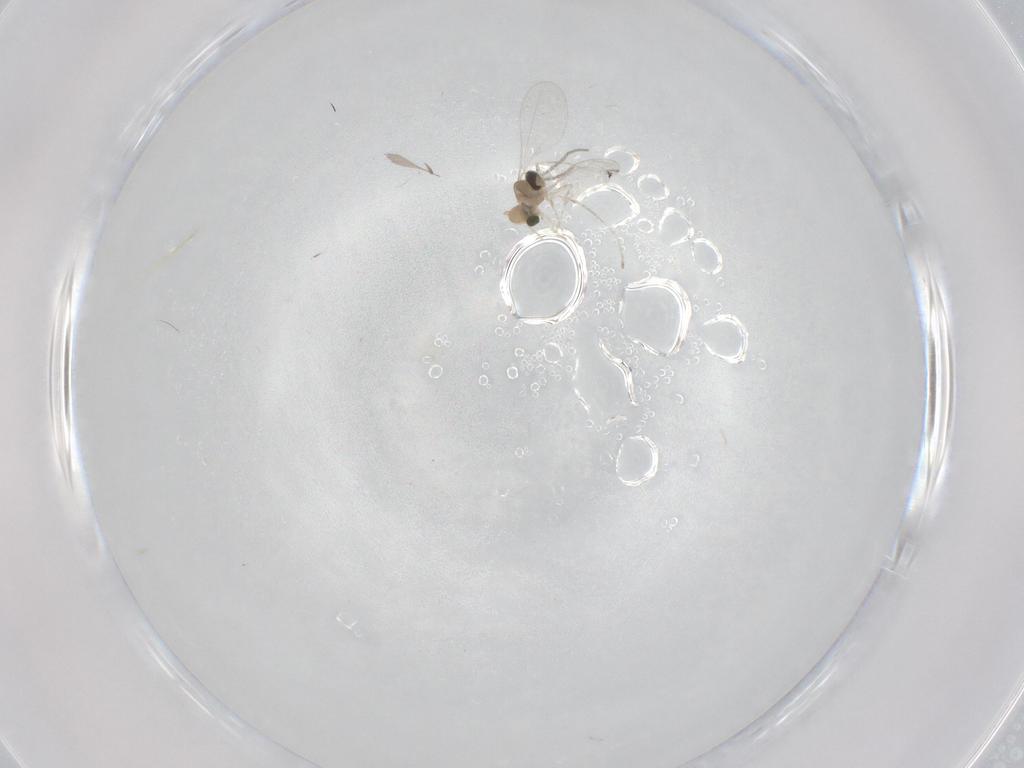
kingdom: Animalia
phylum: Arthropoda
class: Insecta
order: Diptera
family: Cecidomyiidae
